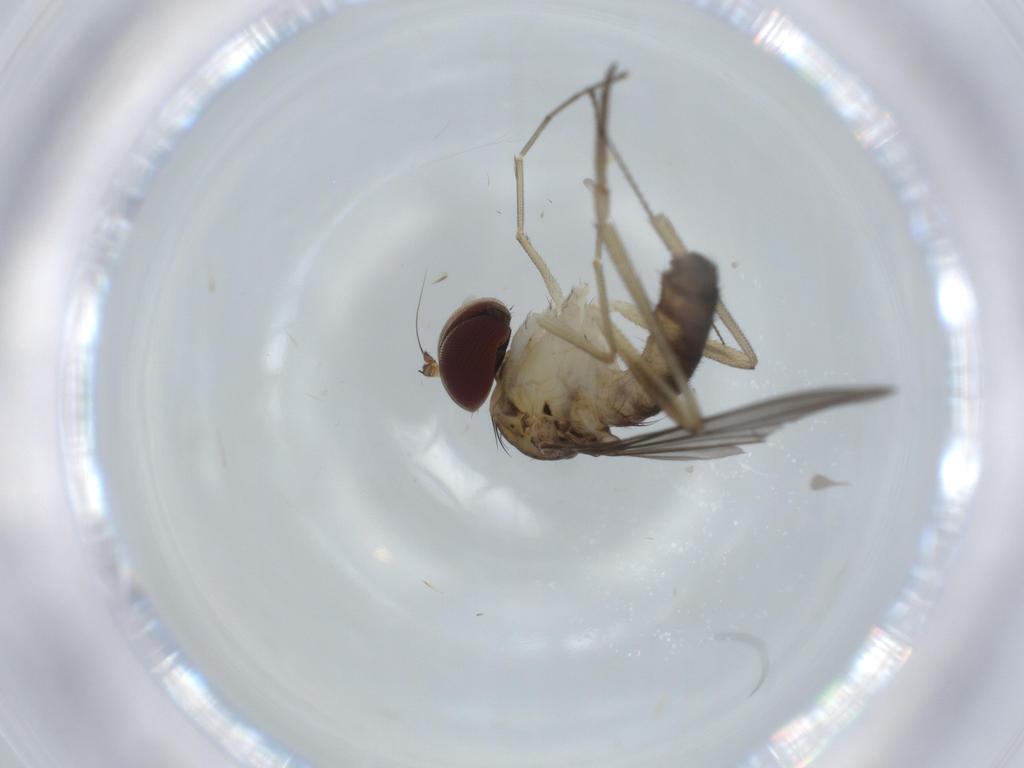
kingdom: Animalia
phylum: Arthropoda
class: Insecta
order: Diptera
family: Dolichopodidae
